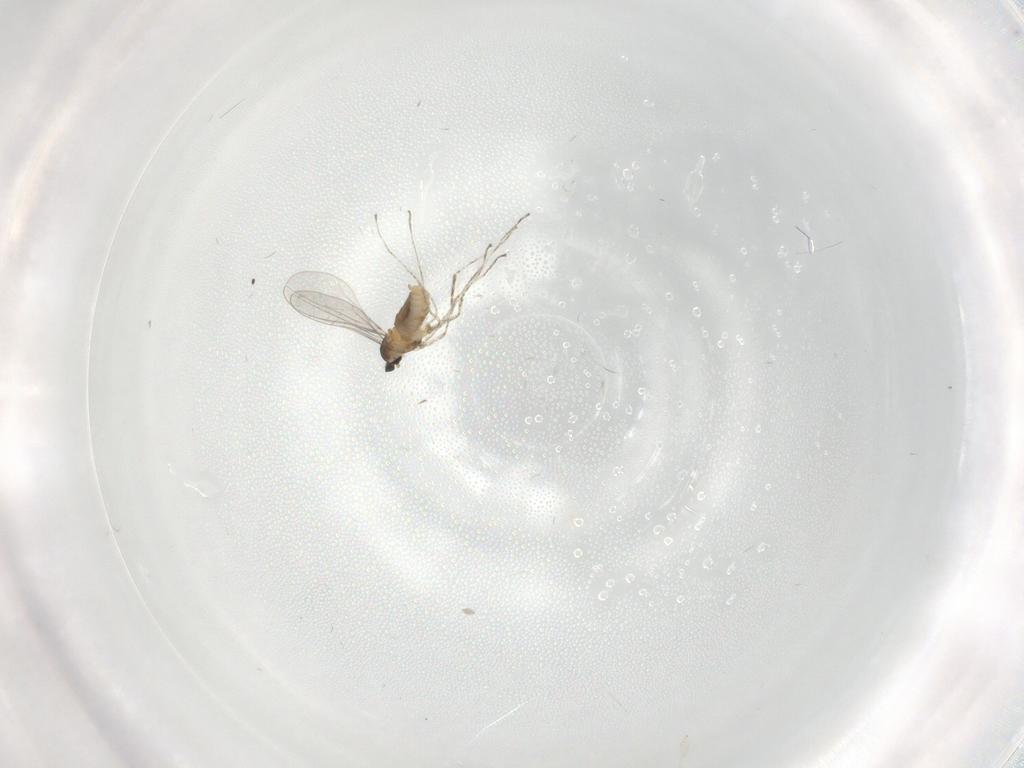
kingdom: Animalia
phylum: Arthropoda
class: Insecta
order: Diptera
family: Cecidomyiidae
